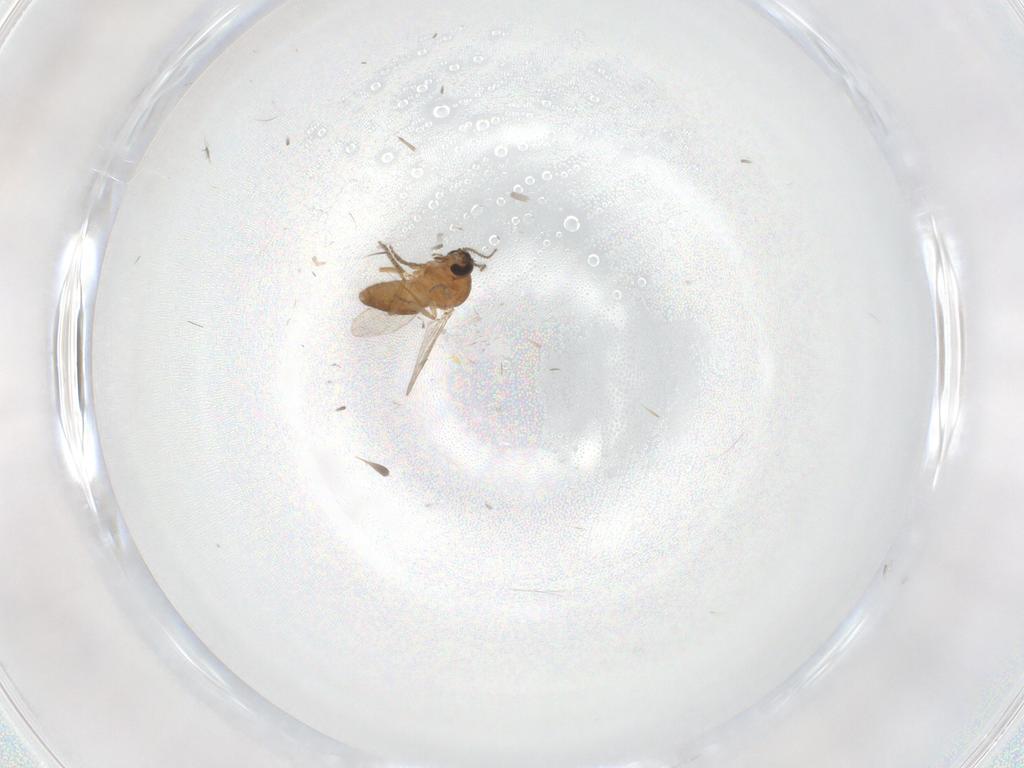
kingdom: Animalia
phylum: Arthropoda
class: Insecta
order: Diptera
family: Ceratopogonidae
